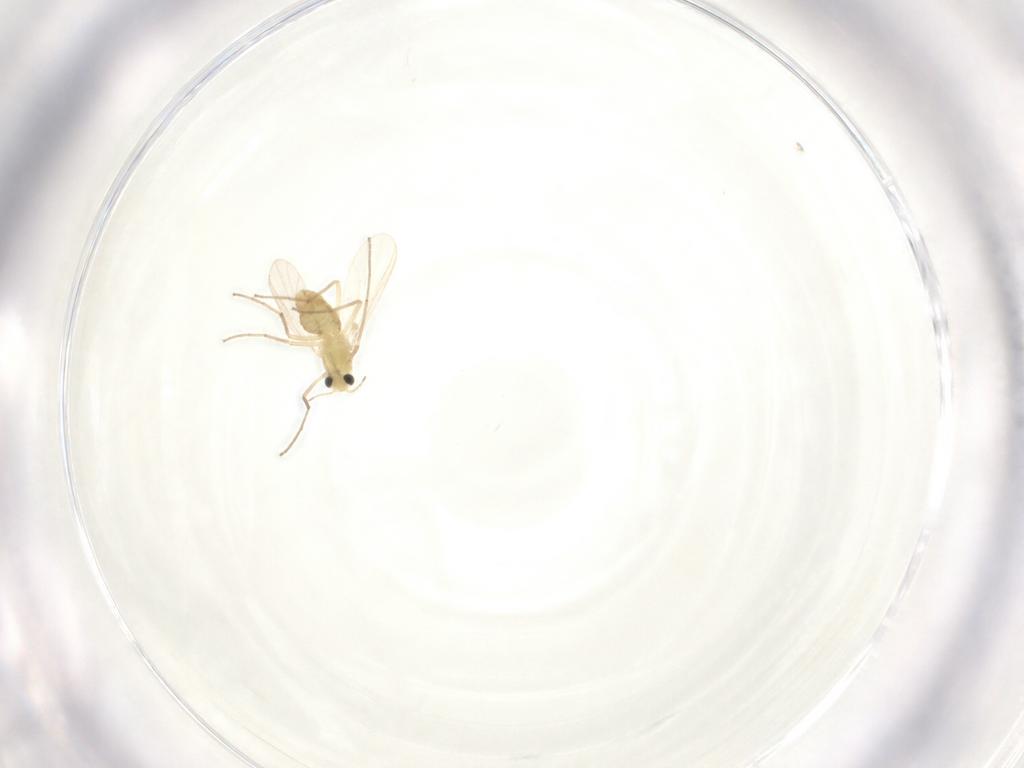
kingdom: Animalia
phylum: Arthropoda
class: Insecta
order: Diptera
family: Chironomidae
